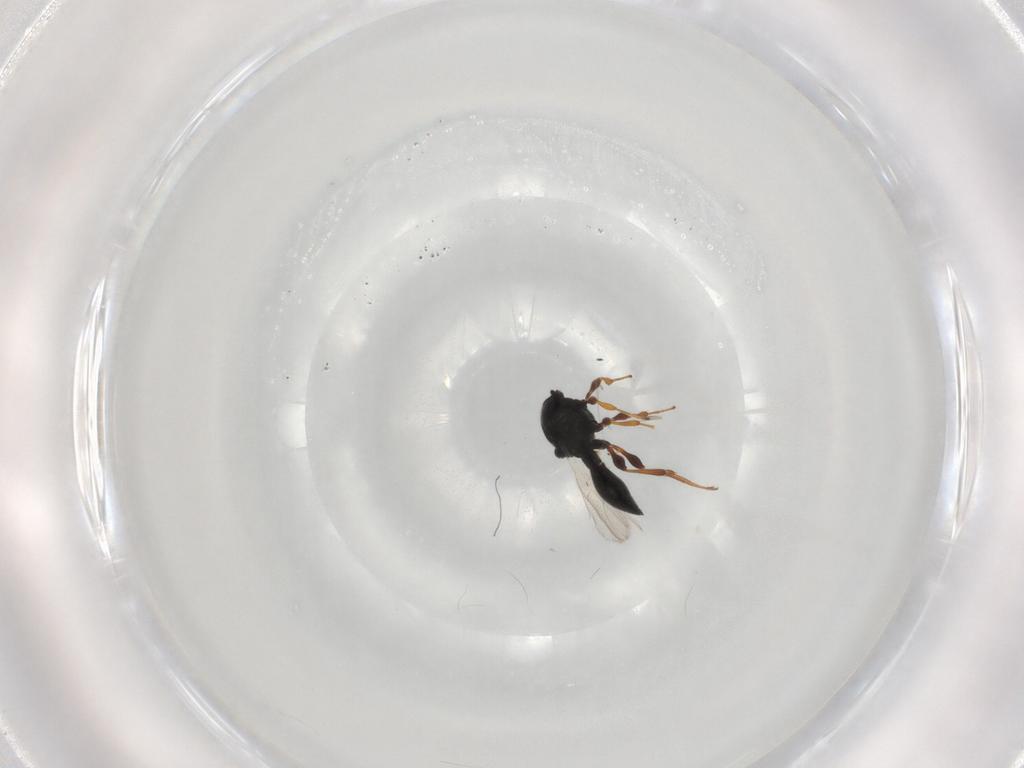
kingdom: Animalia
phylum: Arthropoda
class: Insecta
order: Hymenoptera
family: Platygastridae
